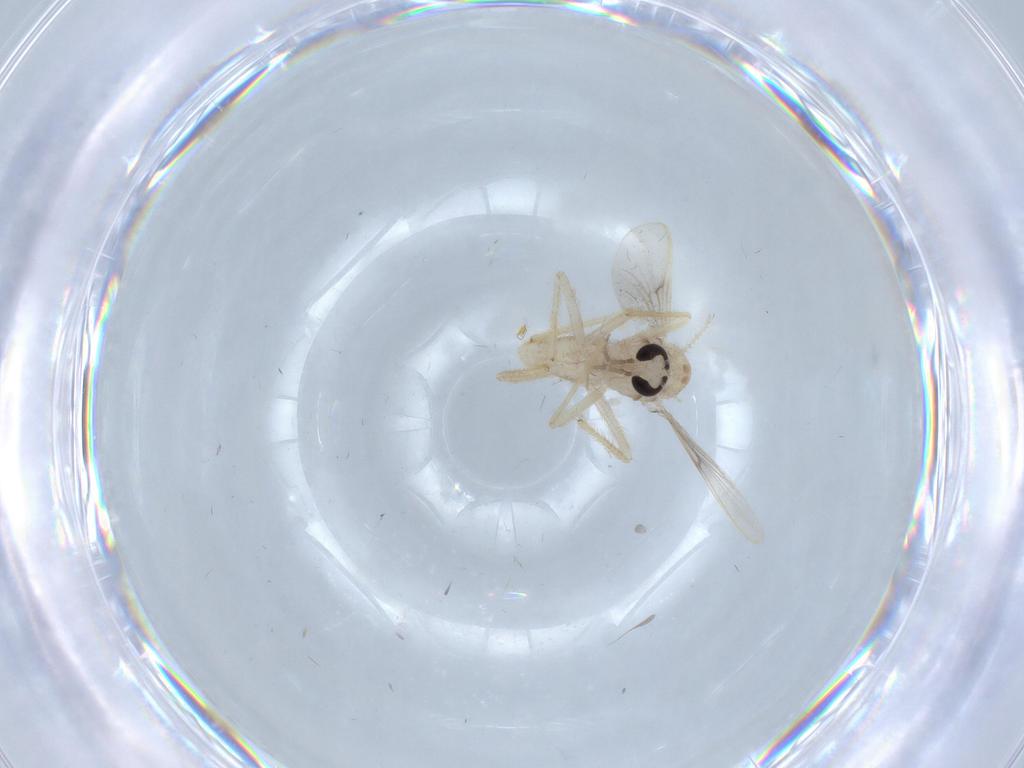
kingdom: Animalia
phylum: Arthropoda
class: Insecta
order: Diptera
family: Chironomidae
